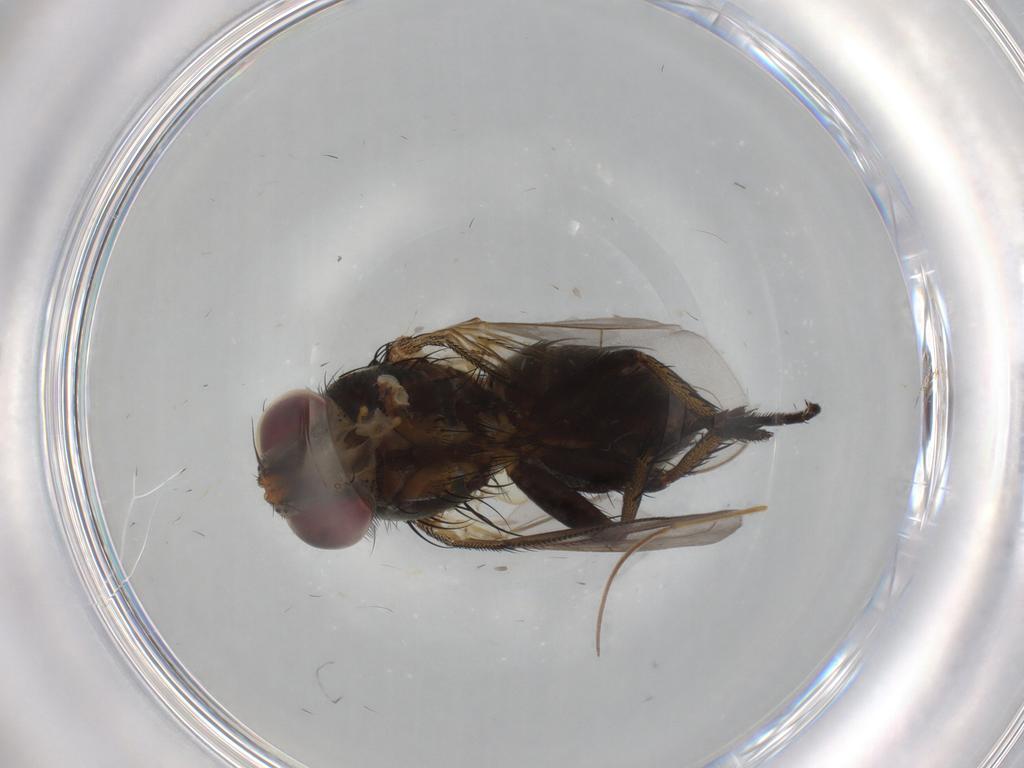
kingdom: Animalia
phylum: Arthropoda
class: Insecta
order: Diptera
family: Tachinidae
